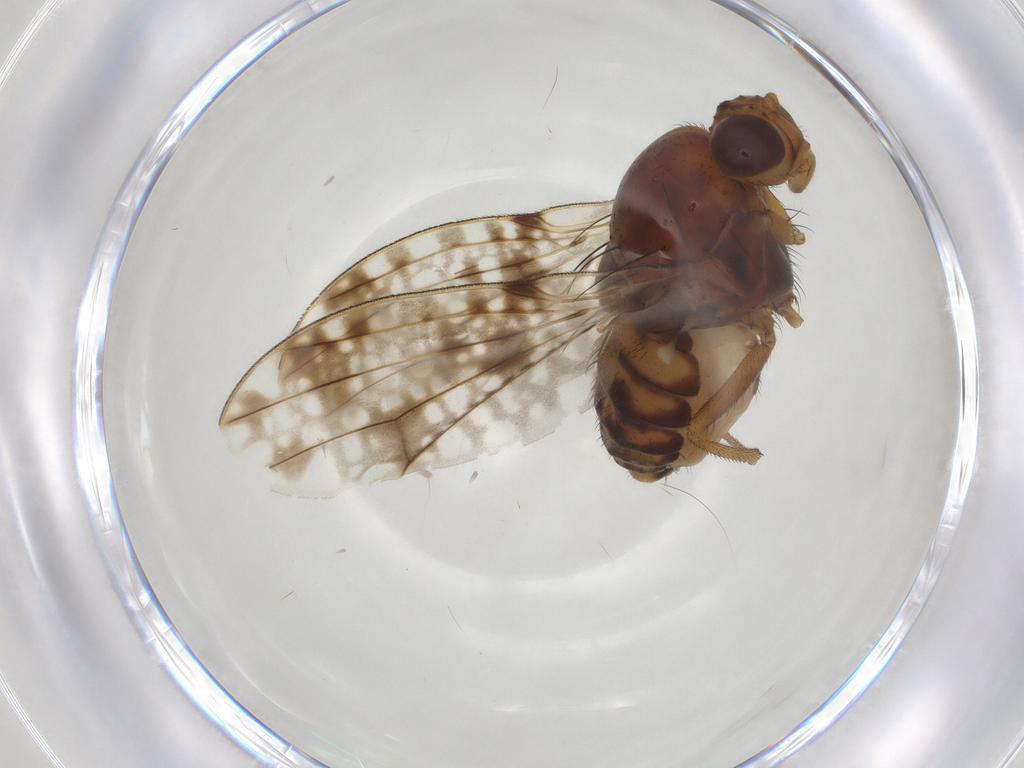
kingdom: Animalia
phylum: Arthropoda
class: Insecta
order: Diptera
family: Lauxaniidae
